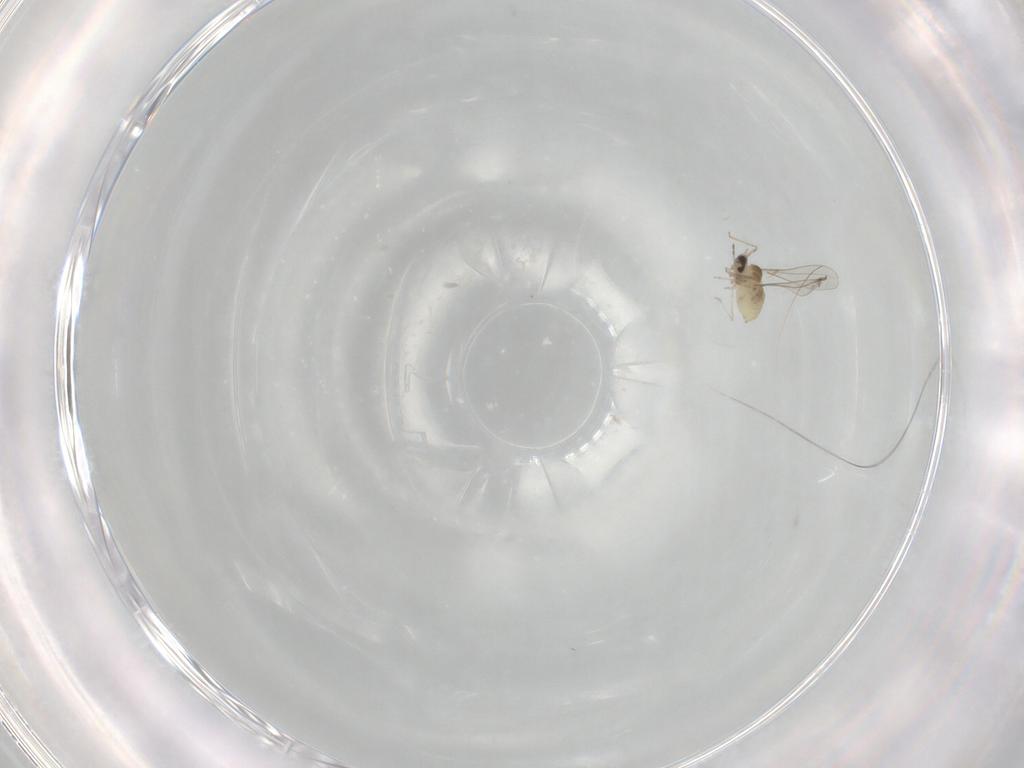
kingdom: Animalia
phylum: Arthropoda
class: Insecta
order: Diptera
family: Cecidomyiidae
